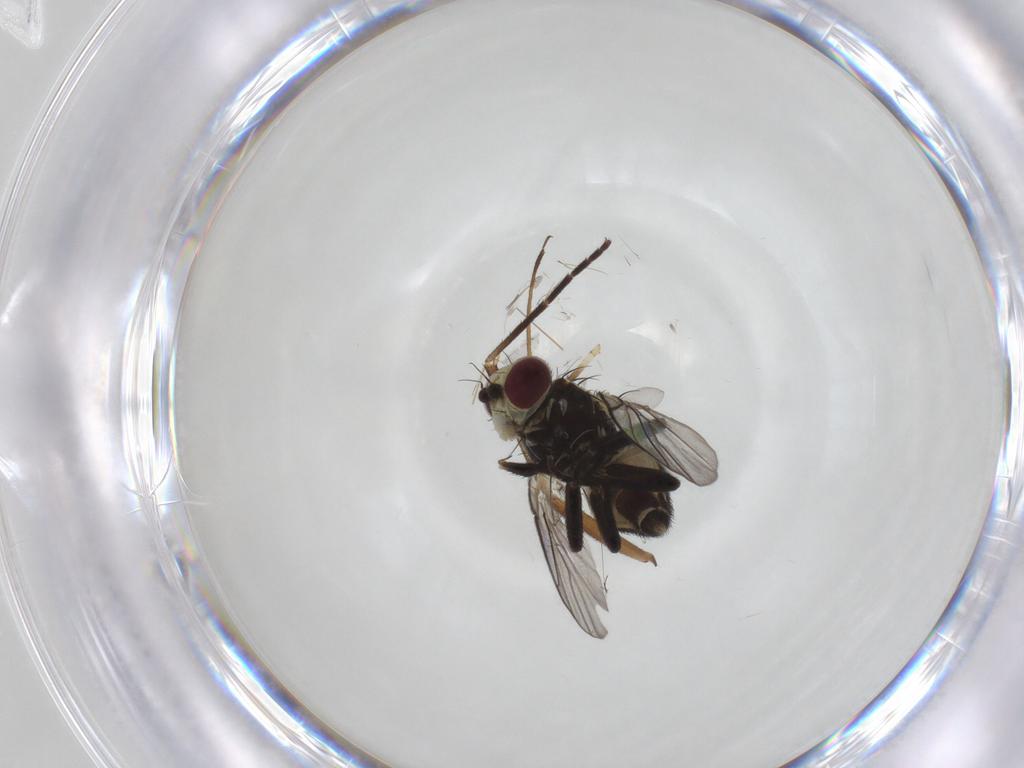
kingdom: Animalia
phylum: Arthropoda
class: Insecta
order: Diptera
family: Agromyzidae
